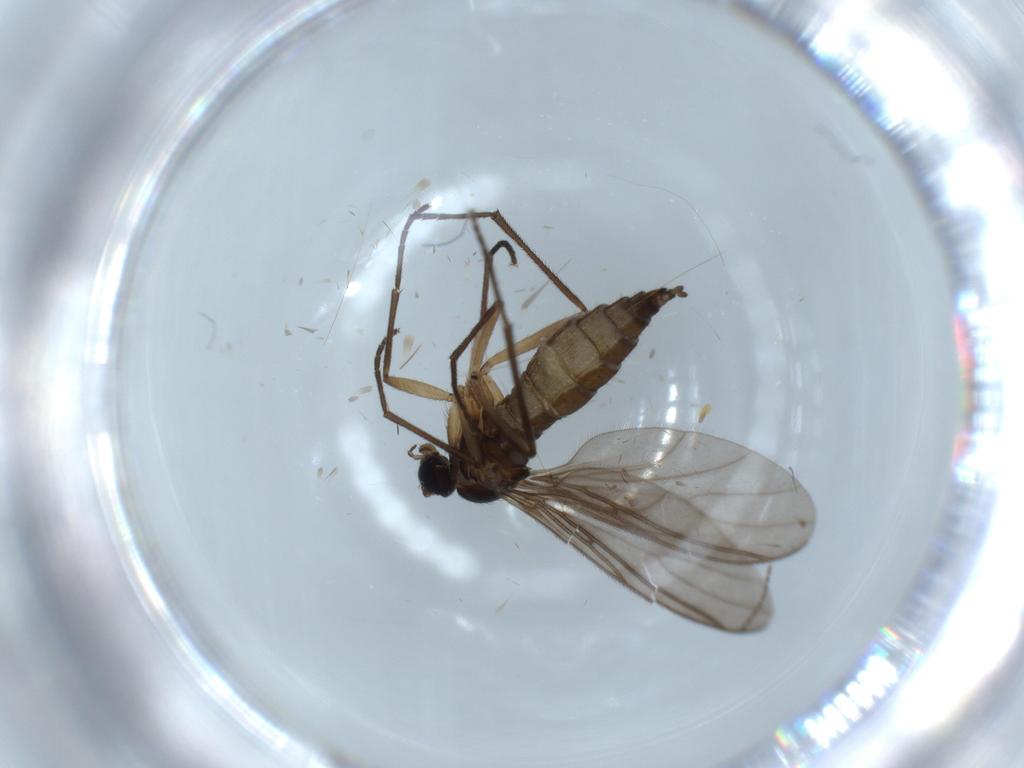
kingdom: Animalia
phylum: Arthropoda
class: Insecta
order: Diptera
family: Sciaridae
